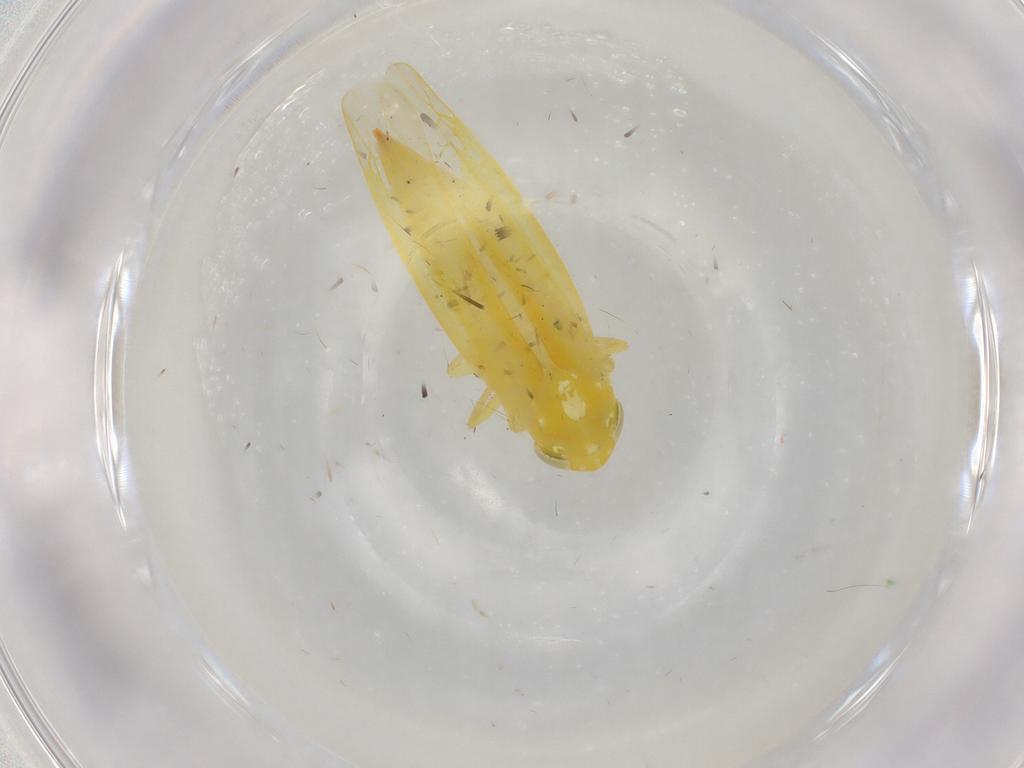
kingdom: Animalia
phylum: Arthropoda
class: Insecta
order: Hemiptera
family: Cicadellidae
